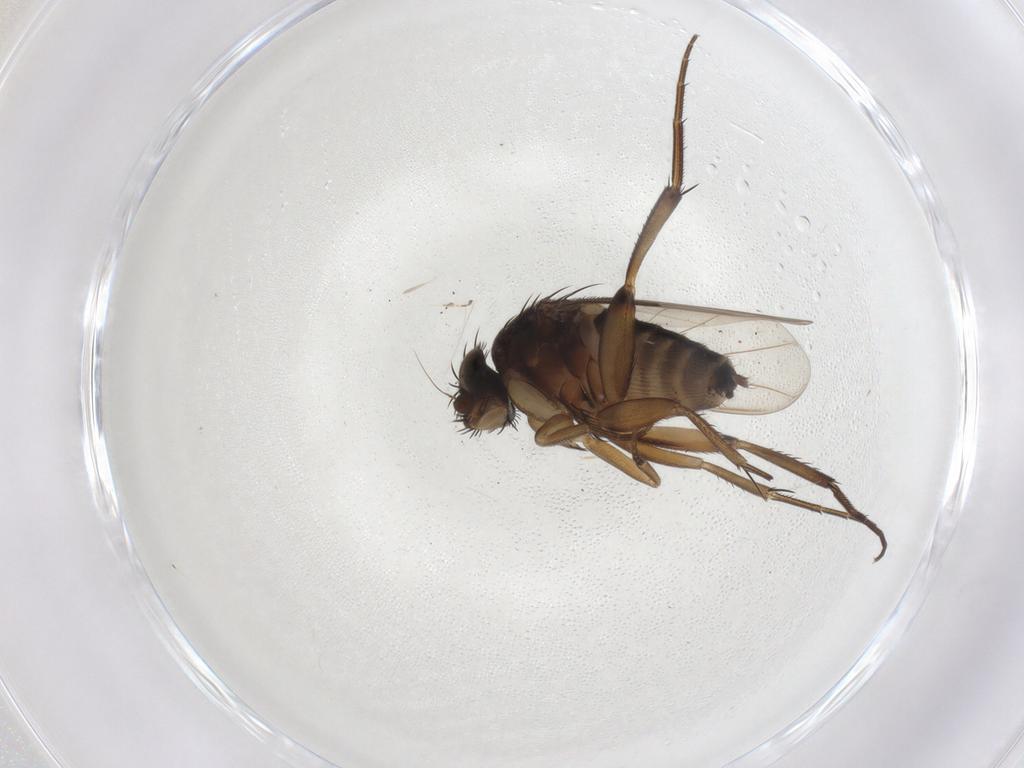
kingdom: Animalia
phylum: Arthropoda
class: Insecta
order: Diptera
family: Phoridae
